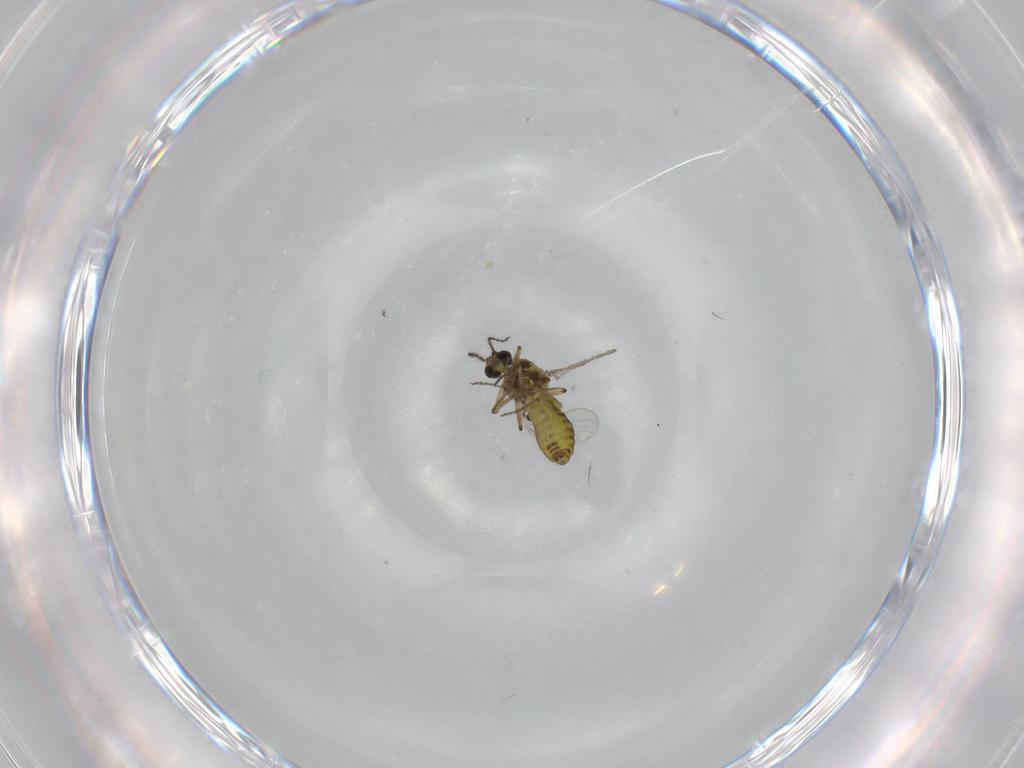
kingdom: Animalia
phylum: Arthropoda
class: Insecta
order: Diptera
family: Ceratopogonidae
